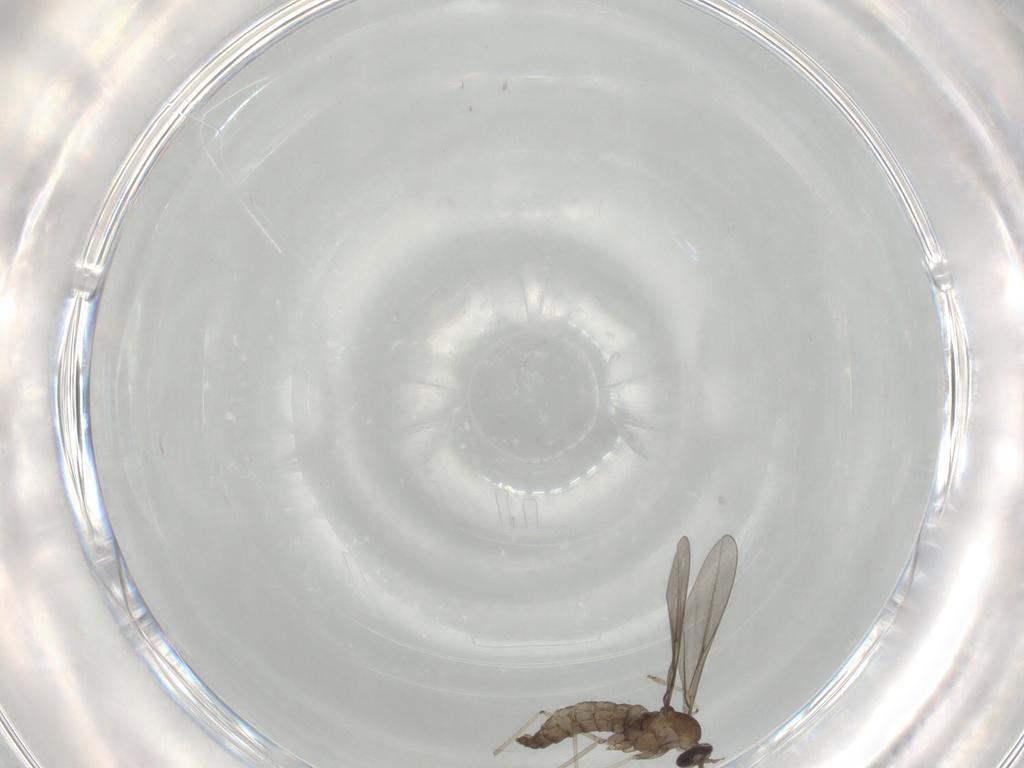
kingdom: Animalia
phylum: Arthropoda
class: Insecta
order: Diptera
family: Cecidomyiidae
